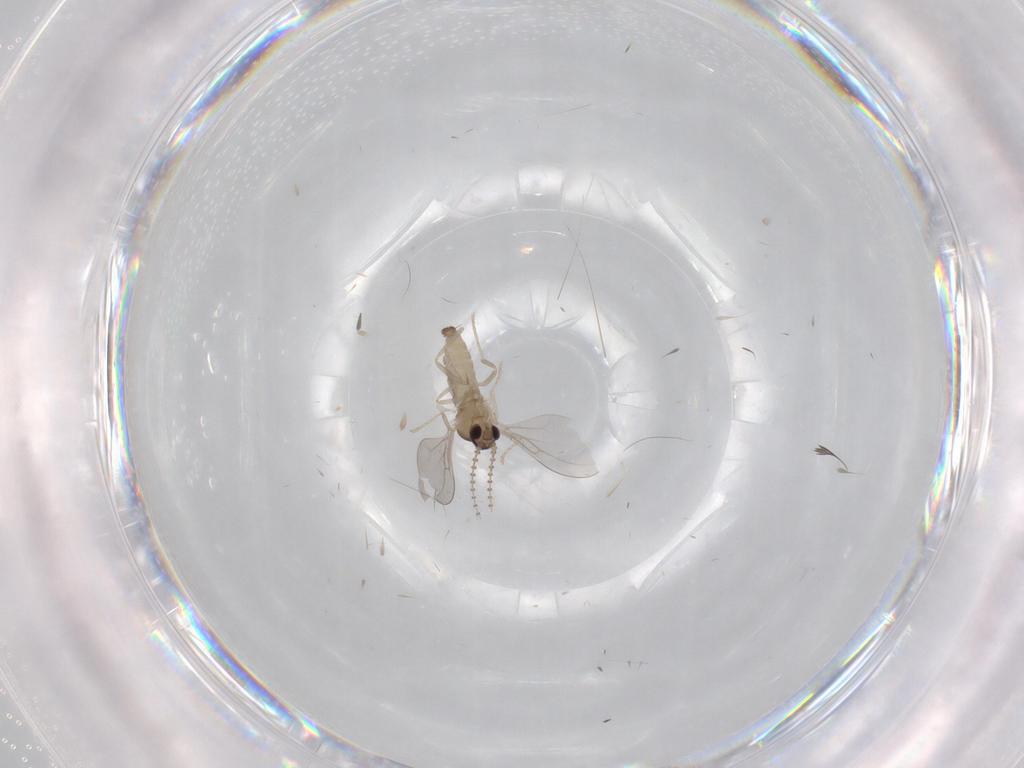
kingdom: Animalia
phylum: Arthropoda
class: Insecta
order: Diptera
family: Cecidomyiidae
